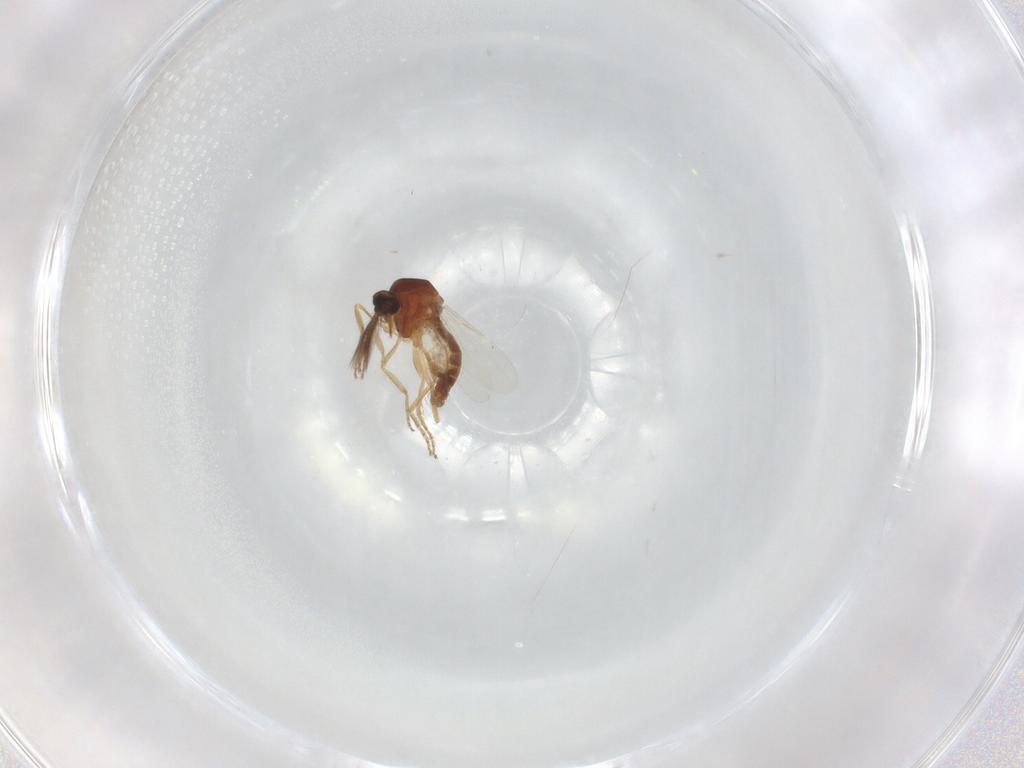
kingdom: Animalia
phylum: Arthropoda
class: Insecta
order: Diptera
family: Ceratopogonidae
